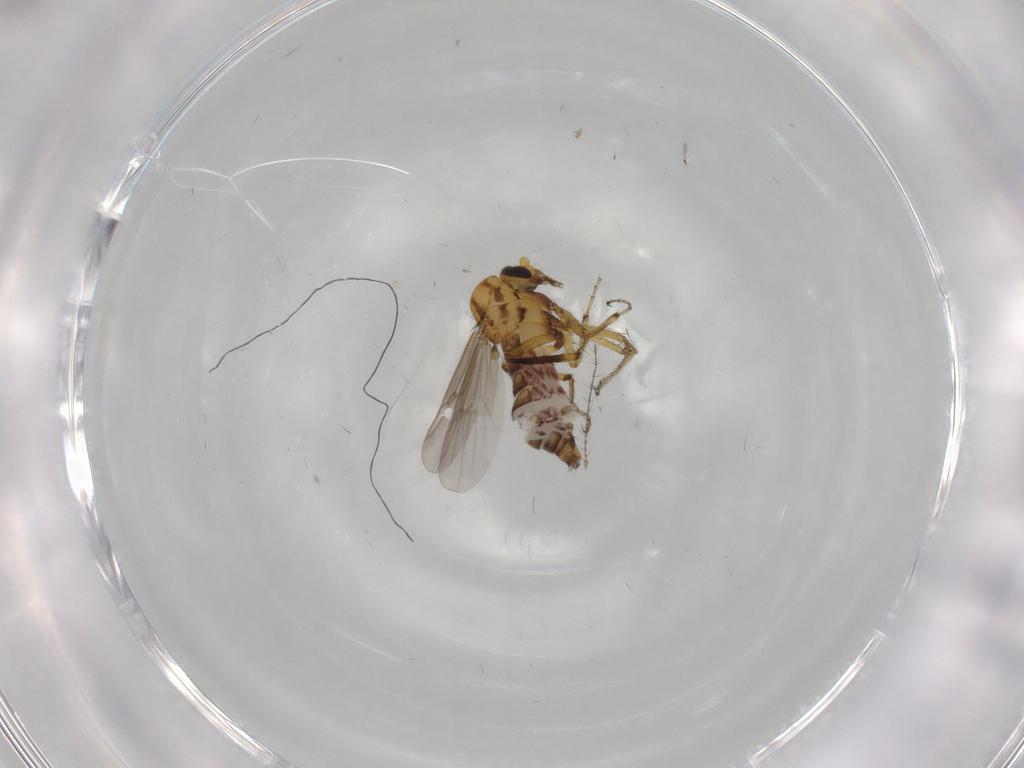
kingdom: Animalia
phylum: Arthropoda
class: Insecta
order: Diptera
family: Ceratopogonidae
